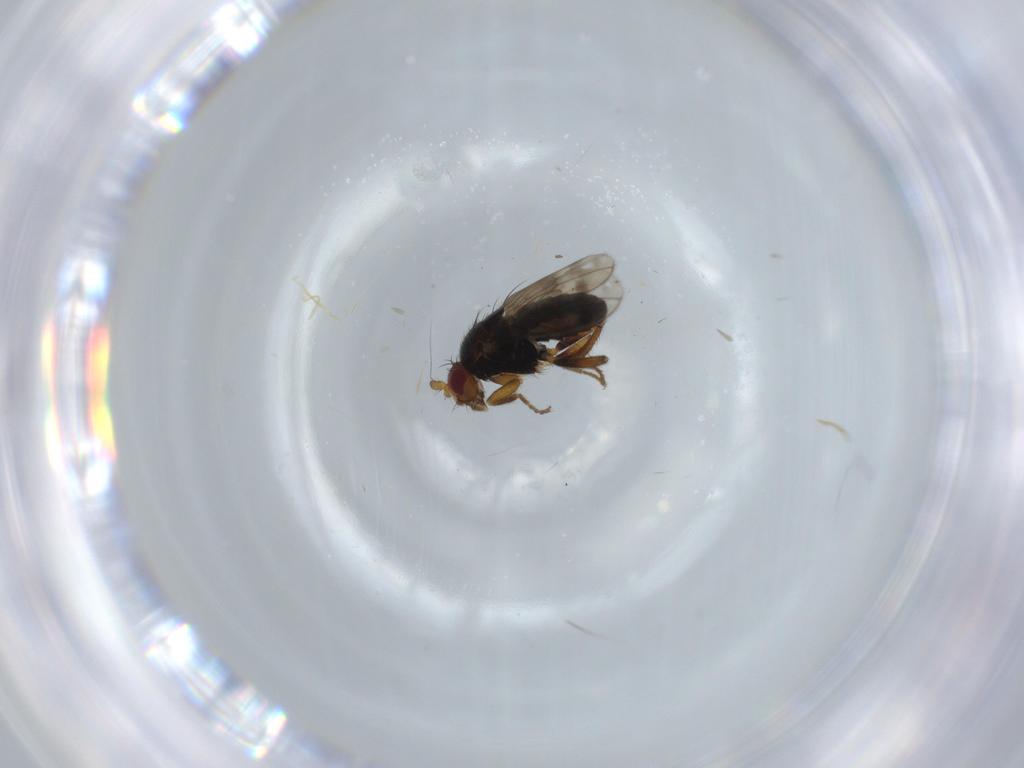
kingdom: Animalia
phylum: Arthropoda
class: Insecta
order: Diptera
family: Sphaeroceridae
